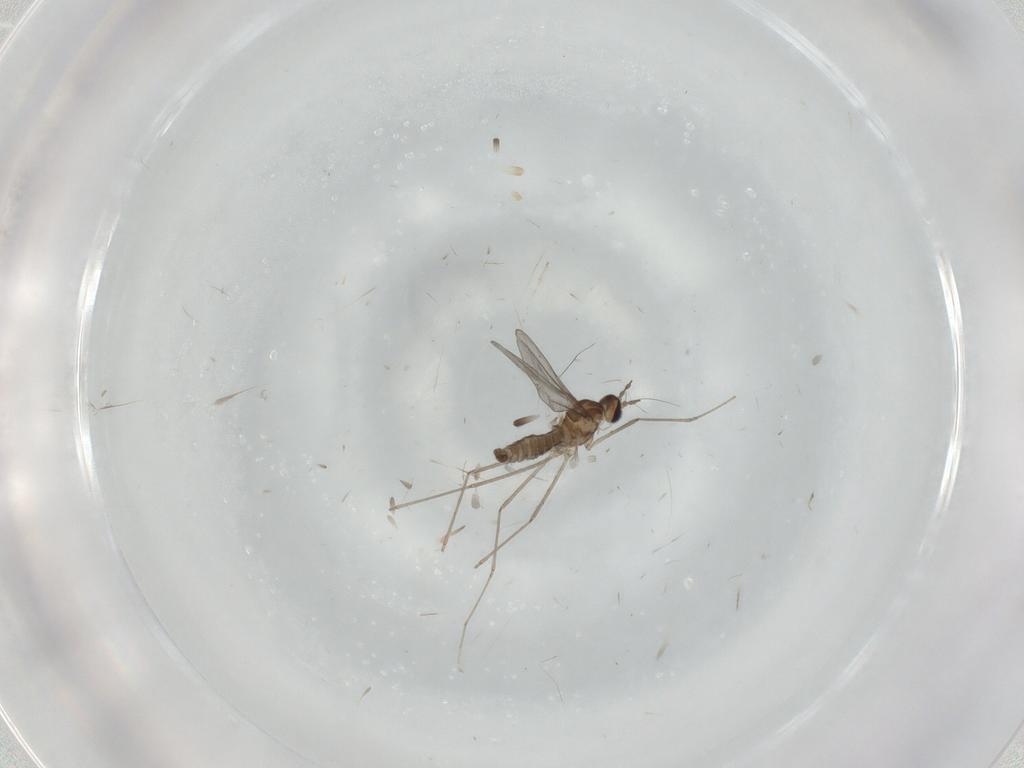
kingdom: Animalia
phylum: Arthropoda
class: Insecta
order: Diptera
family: Cecidomyiidae
